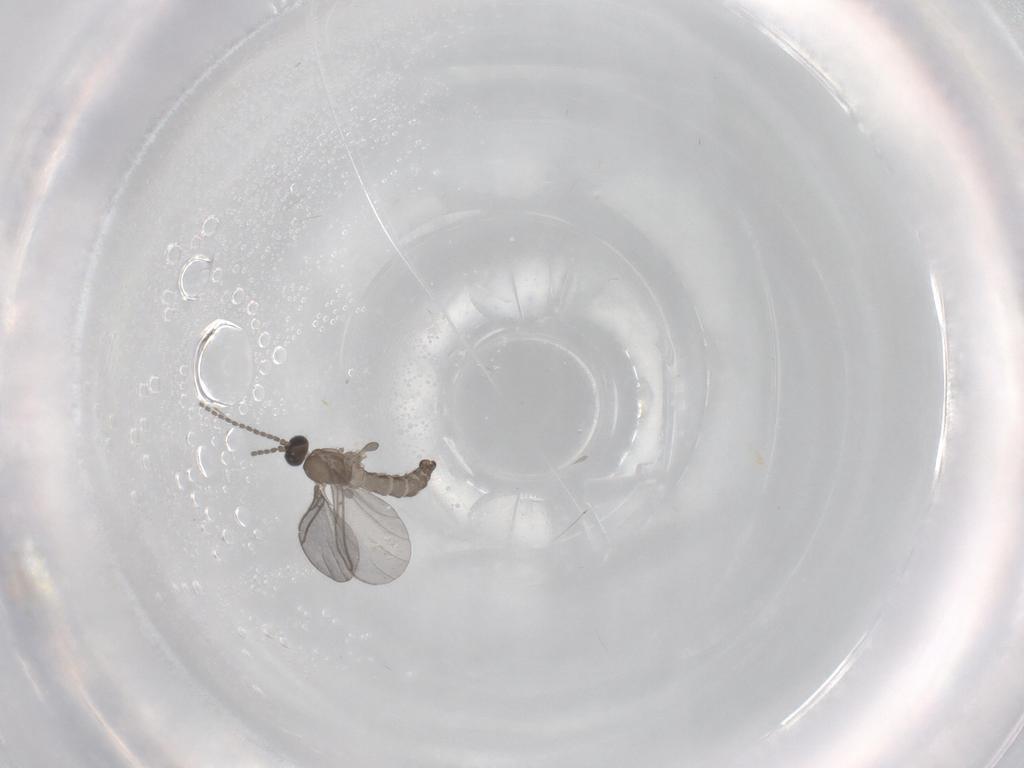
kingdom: Animalia
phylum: Arthropoda
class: Insecta
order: Diptera
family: Sciaridae
